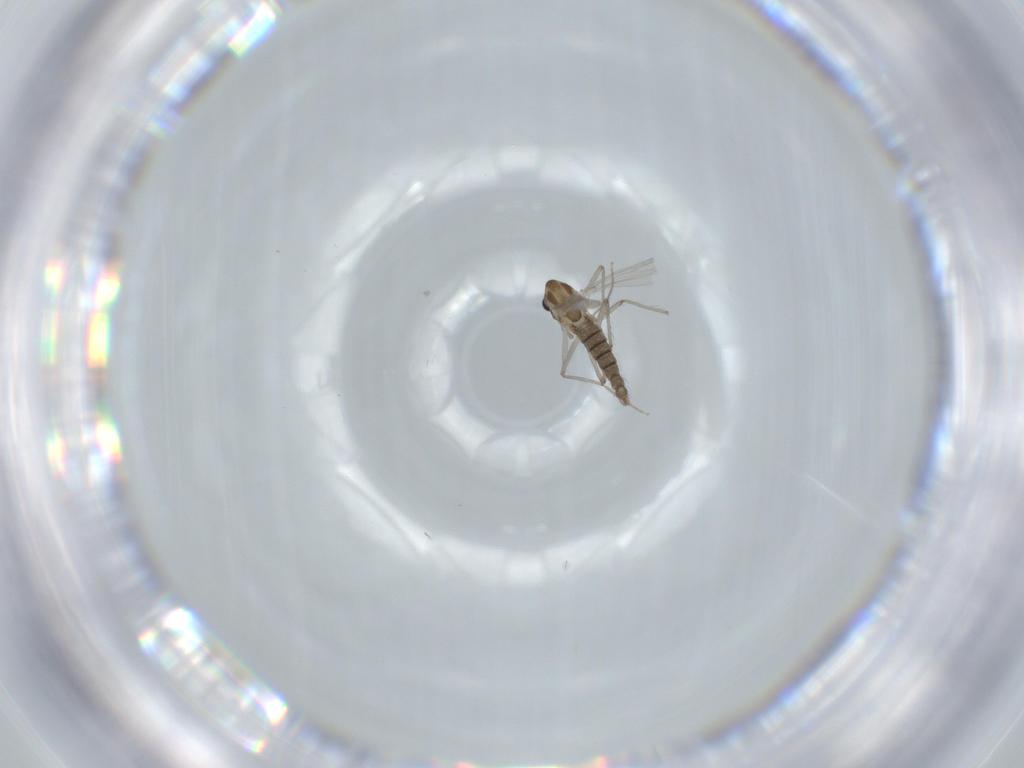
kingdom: Animalia
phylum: Arthropoda
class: Insecta
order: Diptera
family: Chironomidae
